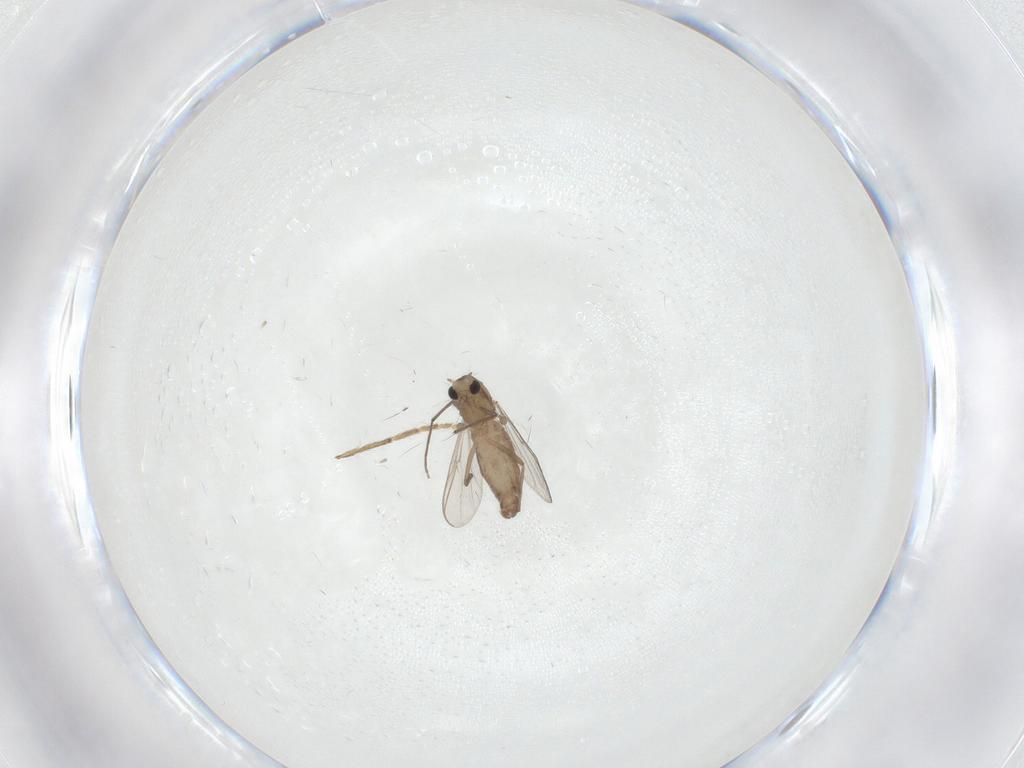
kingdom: Animalia
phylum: Arthropoda
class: Insecta
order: Diptera
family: Chironomidae
